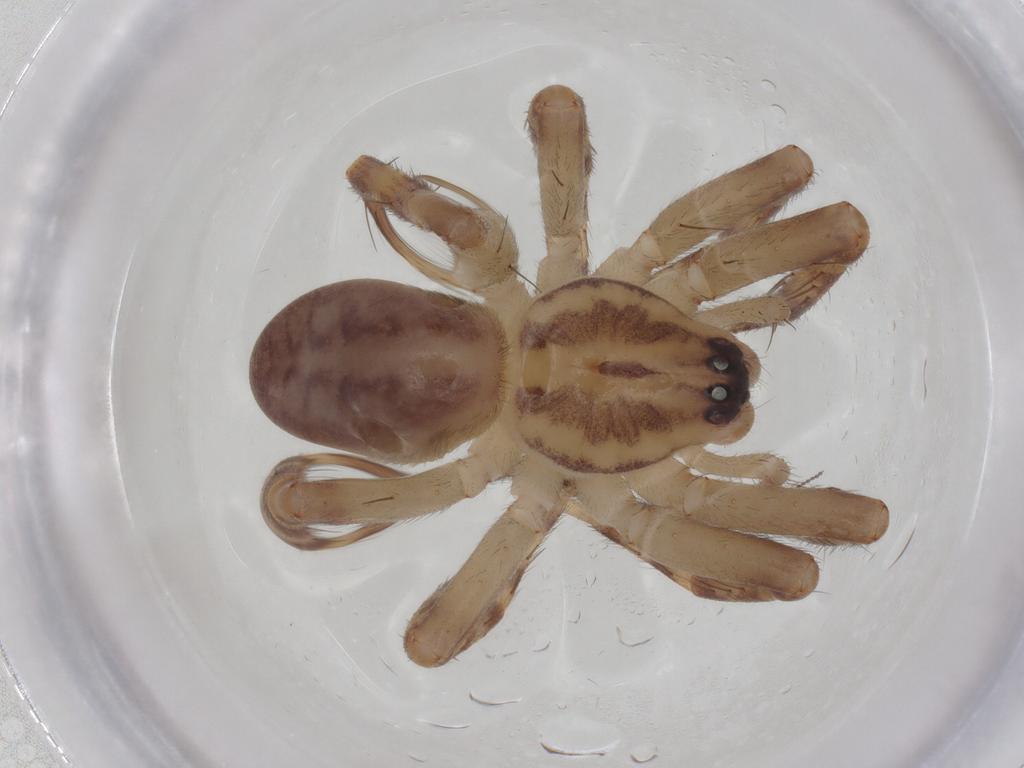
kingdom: Animalia
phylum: Arthropoda
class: Arachnida
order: Araneae
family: Corinnidae
